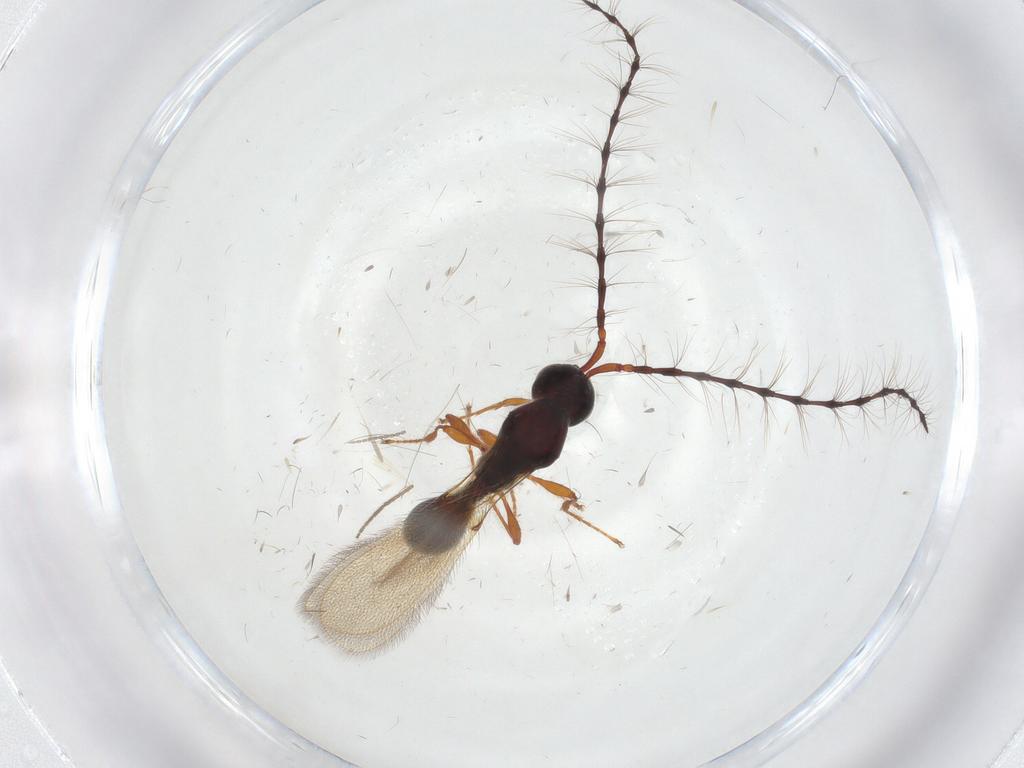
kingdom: Animalia
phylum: Arthropoda
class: Insecta
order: Hymenoptera
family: Diapriidae
